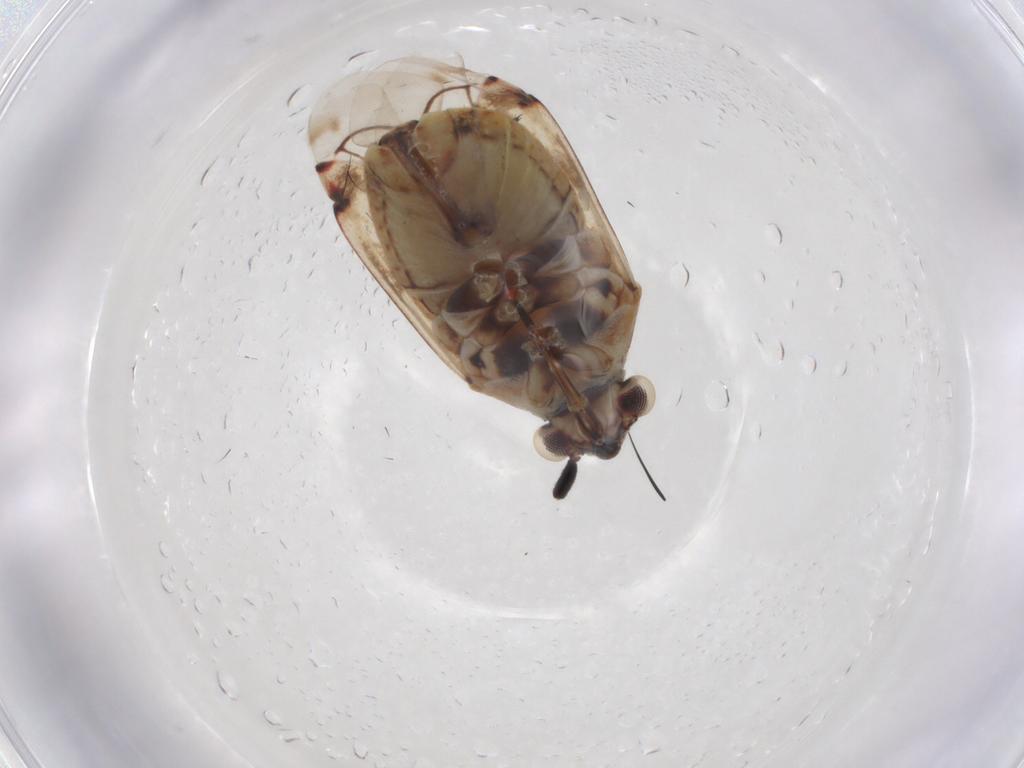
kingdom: Animalia
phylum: Arthropoda
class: Insecta
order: Hemiptera
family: Miridae
